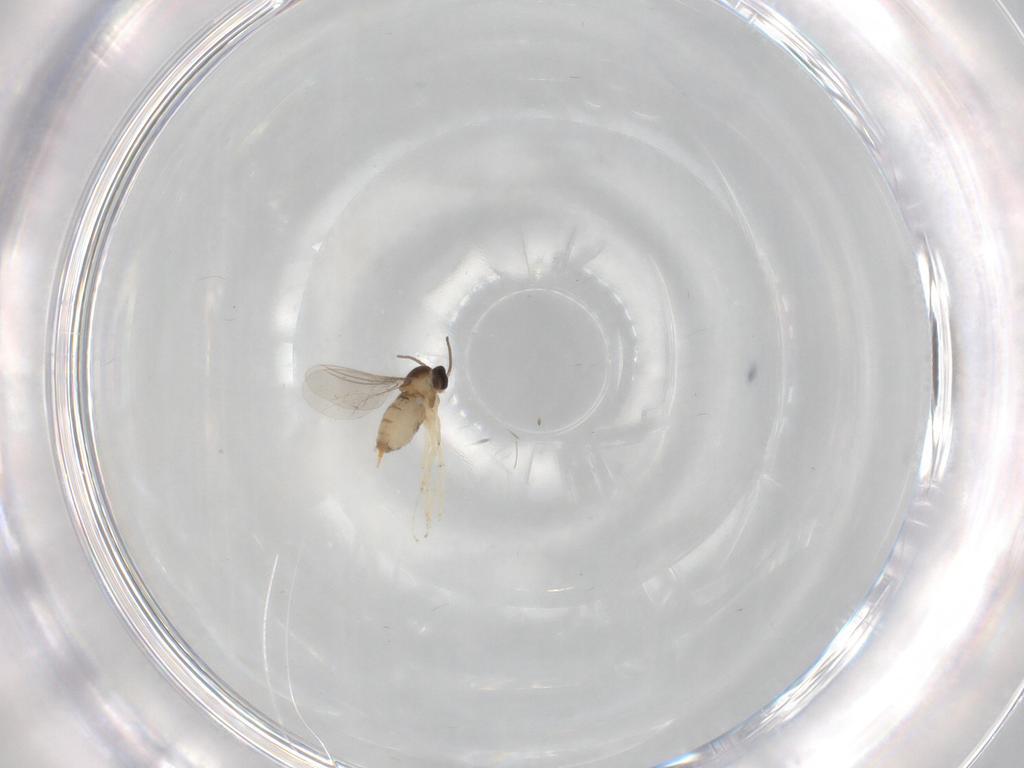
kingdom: Animalia
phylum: Arthropoda
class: Insecta
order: Diptera
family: Cecidomyiidae
